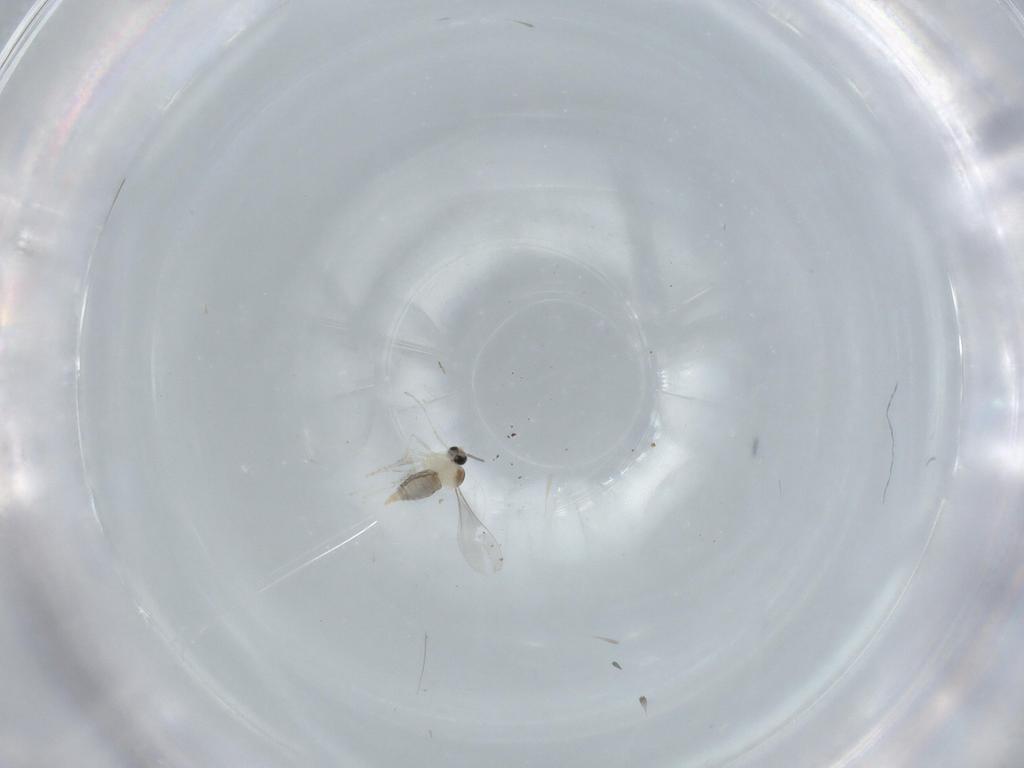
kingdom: Animalia
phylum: Arthropoda
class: Insecta
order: Diptera
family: Cecidomyiidae
